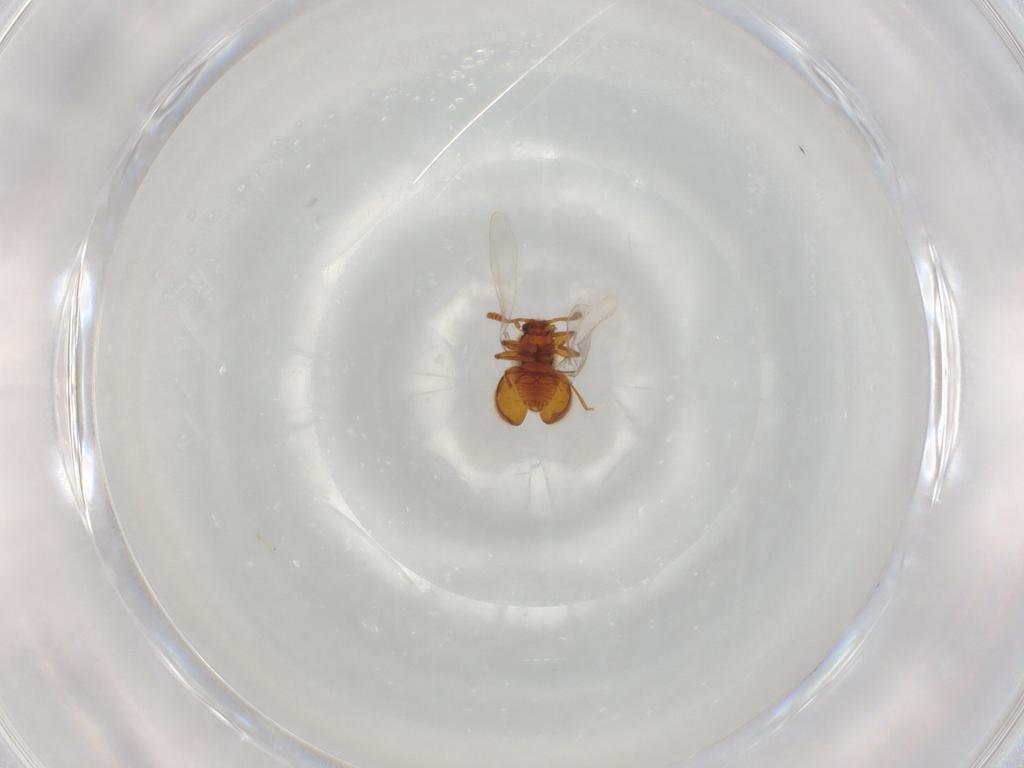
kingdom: Animalia
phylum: Arthropoda
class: Insecta
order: Coleoptera
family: Staphylinidae
